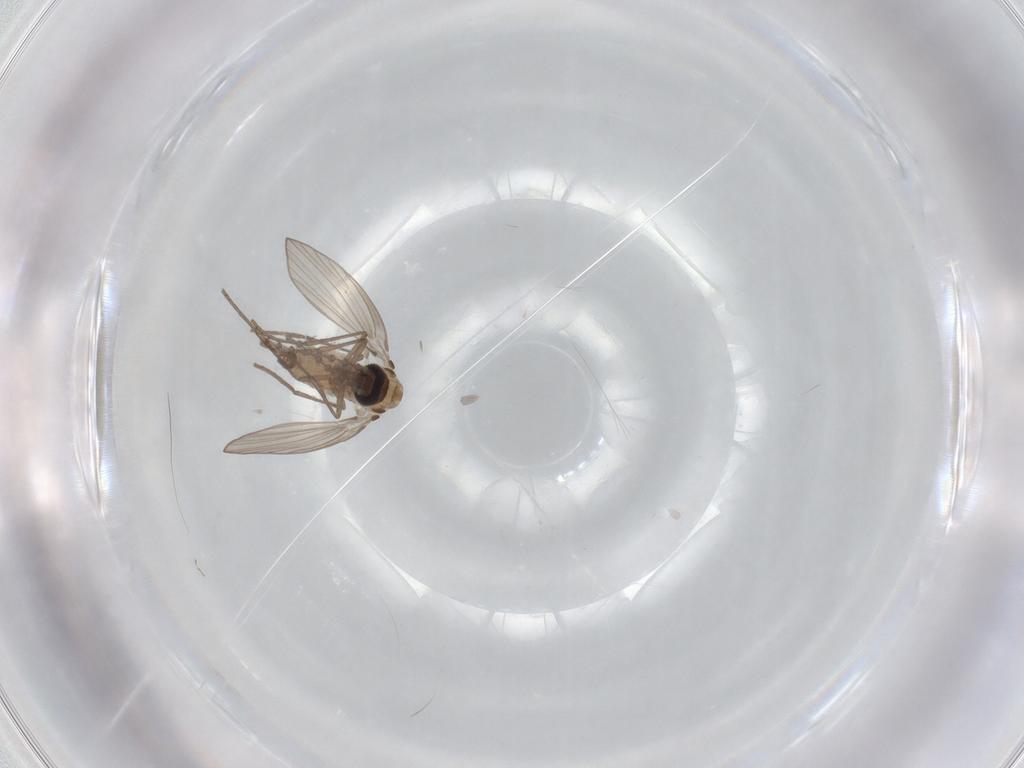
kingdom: Animalia
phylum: Arthropoda
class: Insecta
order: Diptera
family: Psychodidae
